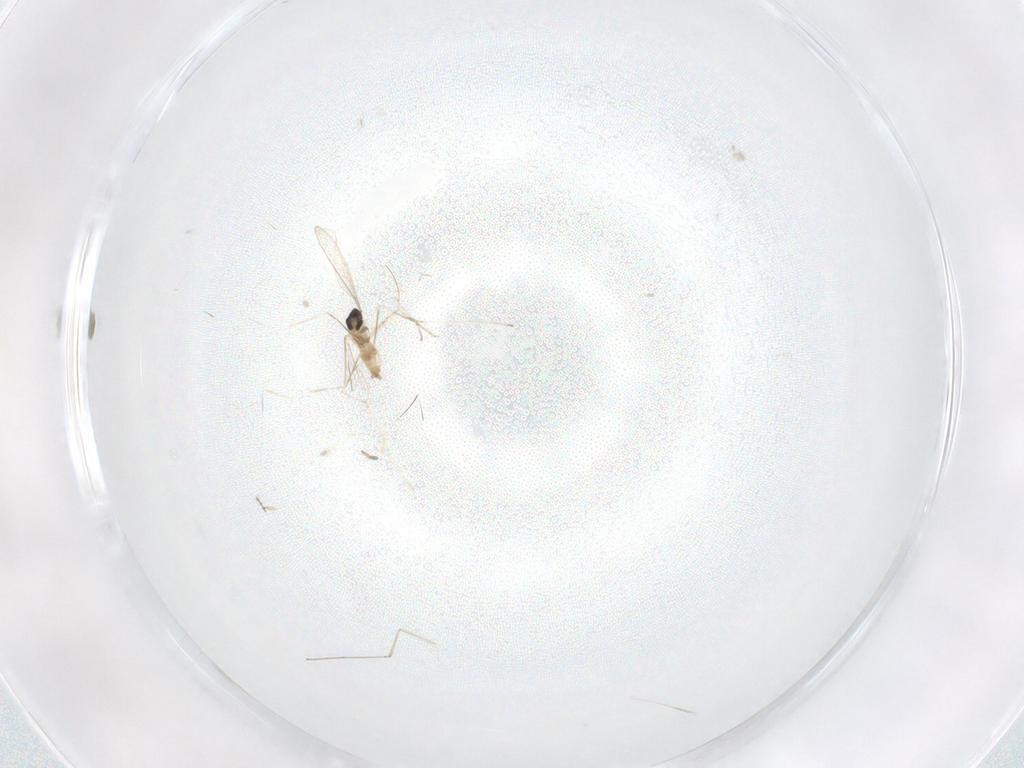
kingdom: Animalia
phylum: Arthropoda
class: Insecta
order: Diptera
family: Cecidomyiidae
